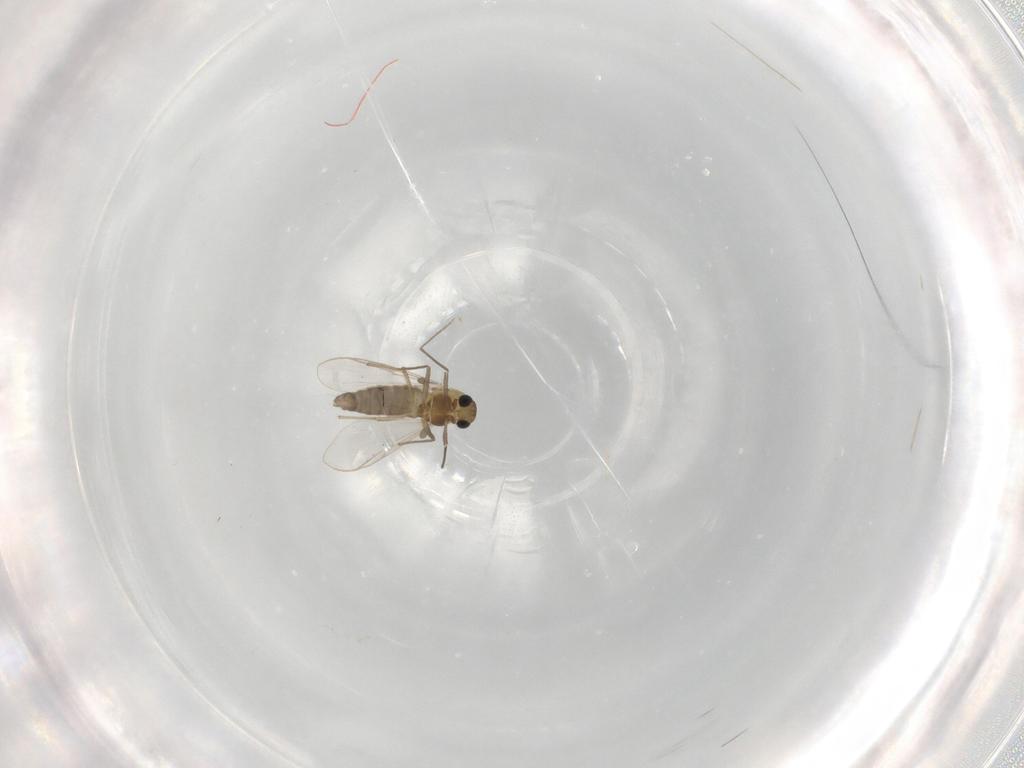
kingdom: Animalia
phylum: Arthropoda
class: Insecta
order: Diptera
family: Chironomidae
